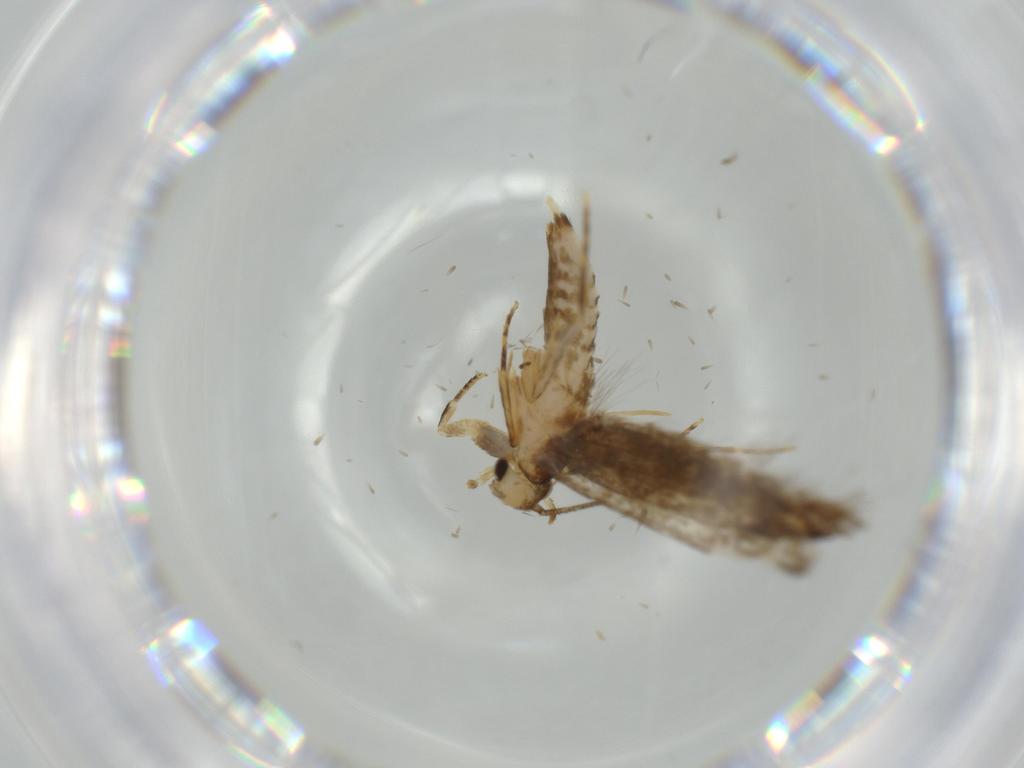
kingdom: Animalia
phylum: Arthropoda
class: Insecta
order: Lepidoptera
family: Tineidae
